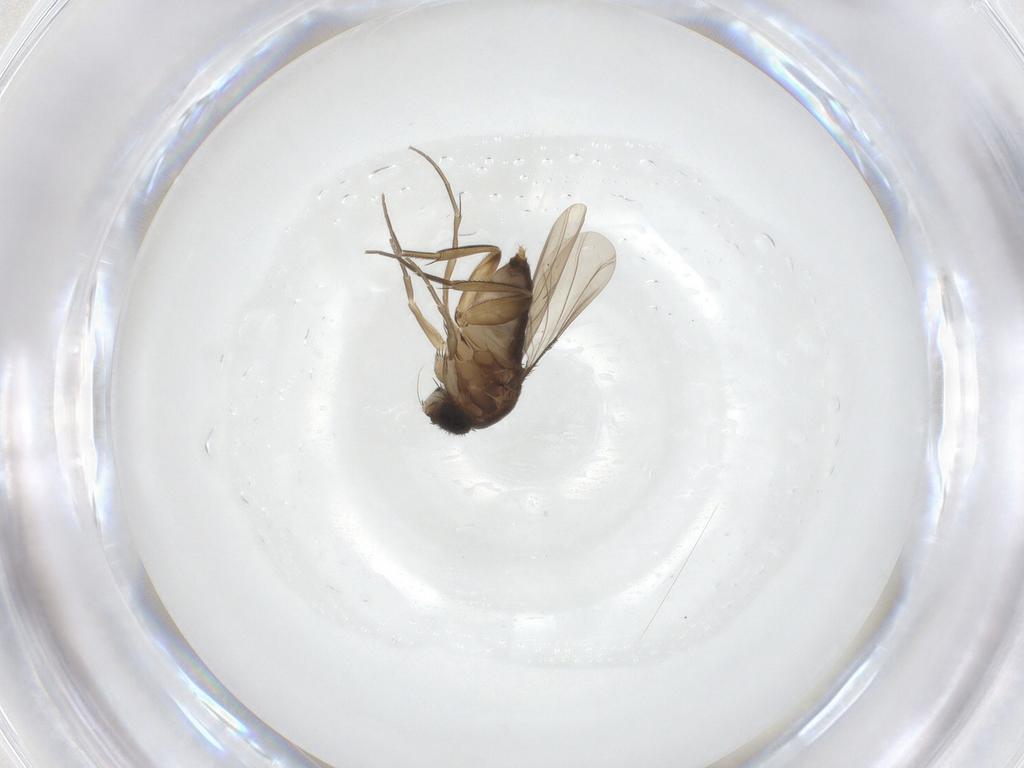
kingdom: Animalia
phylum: Arthropoda
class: Insecta
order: Diptera
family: Phoridae
